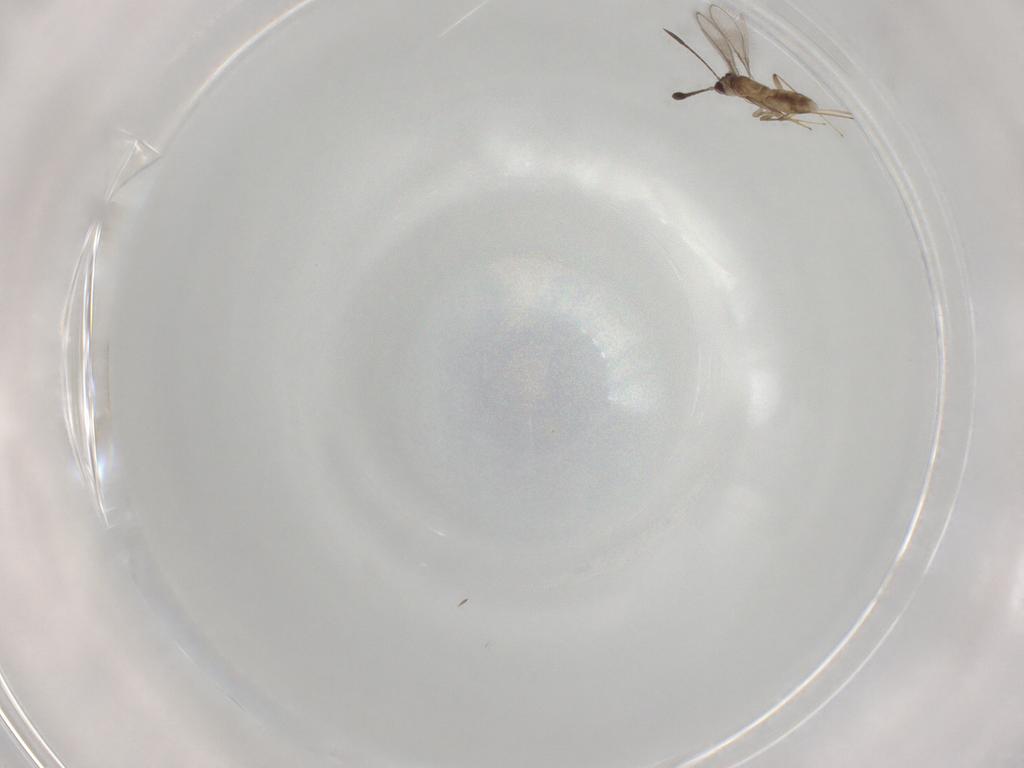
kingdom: Animalia
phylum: Arthropoda
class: Insecta
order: Hymenoptera
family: Mymaridae
